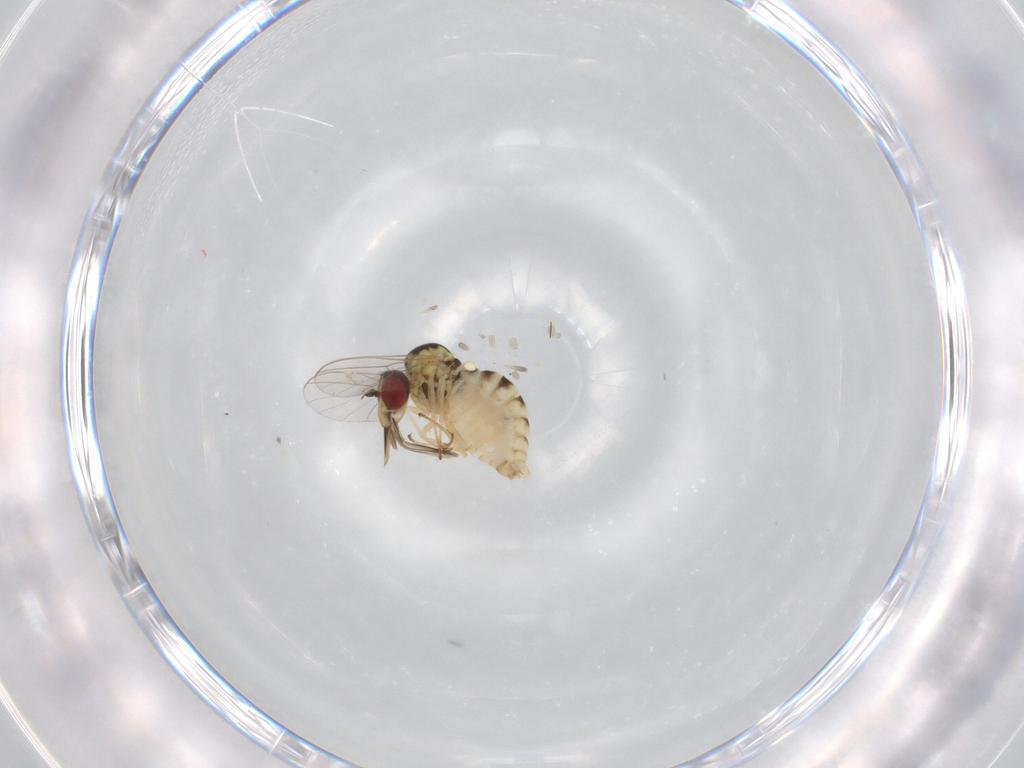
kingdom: Animalia
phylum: Arthropoda
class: Insecta
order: Diptera
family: Bombyliidae
